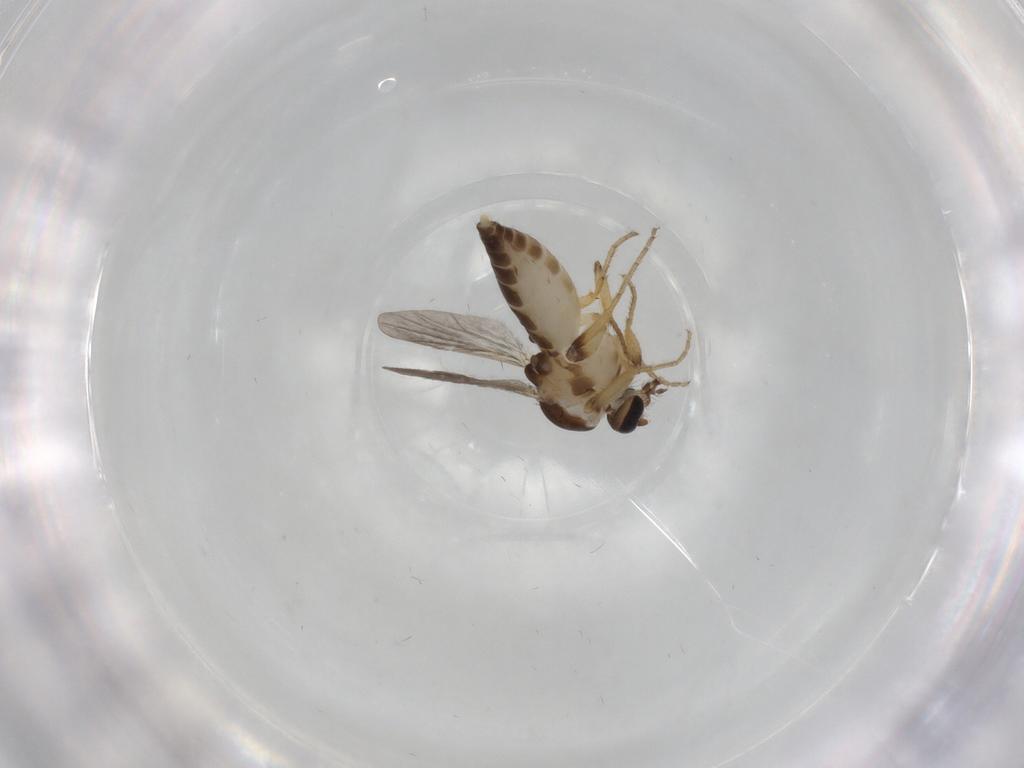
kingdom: Animalia
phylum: Arthropoda
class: Insecta
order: Diptera
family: Ceratopogonidae
